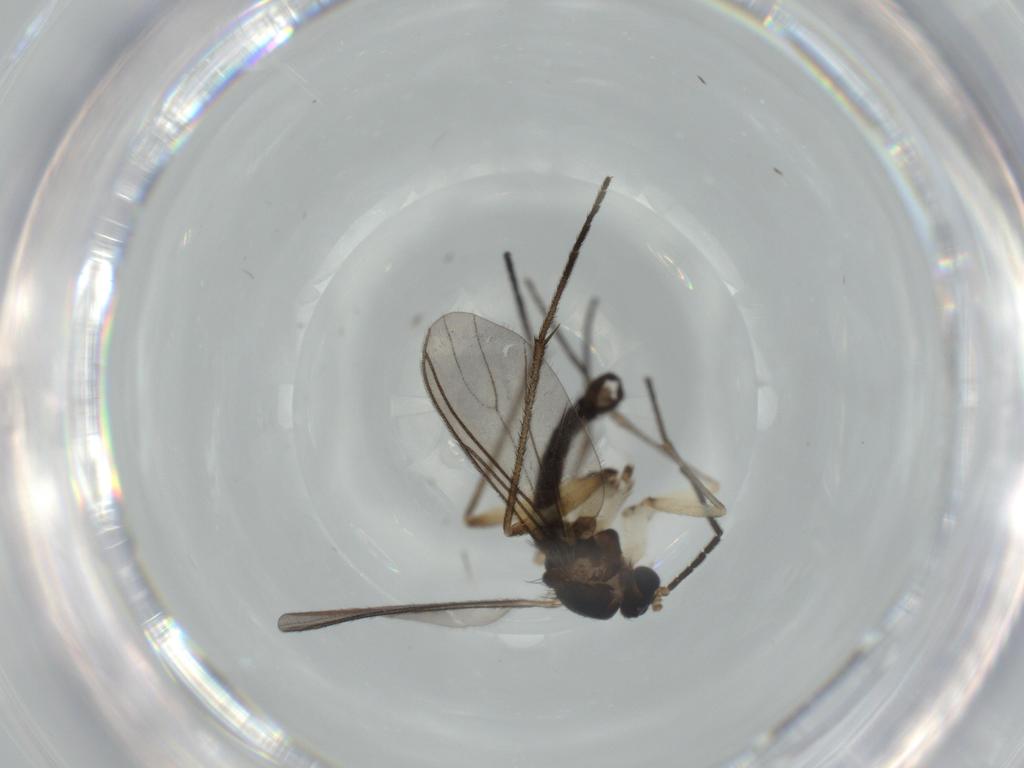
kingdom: Animalia
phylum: Arthropoda
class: Insecta
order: Diptera
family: Sciaridae
